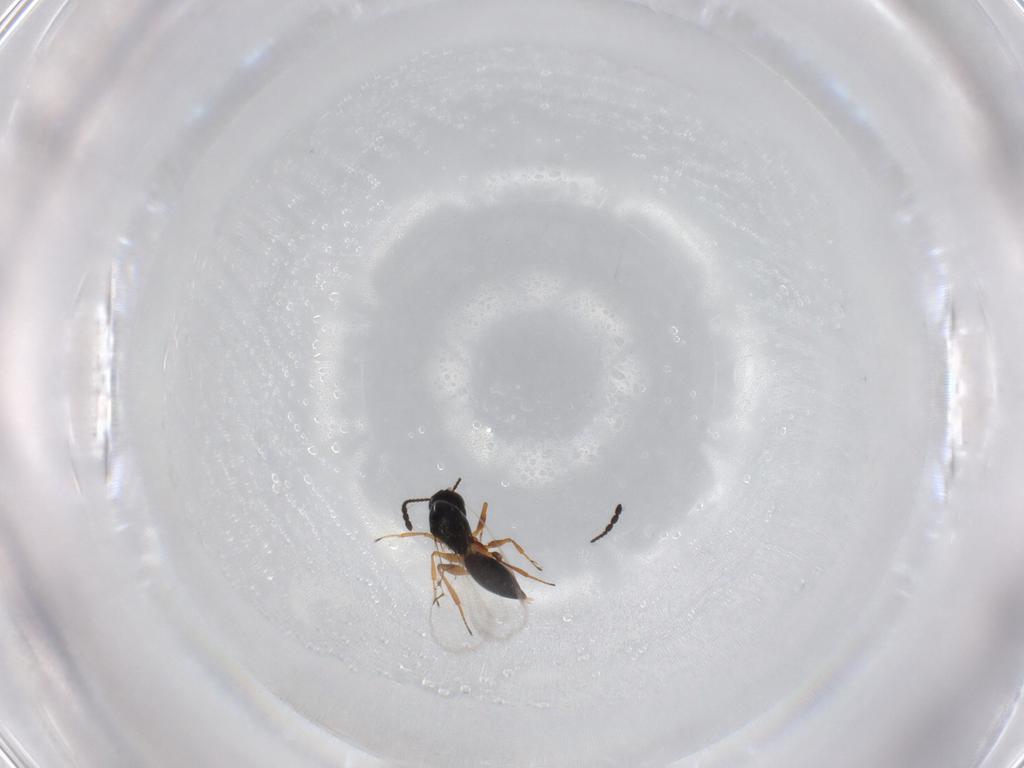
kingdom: Animalia
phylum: Arthropoda
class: Insecta
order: Hymenoptera
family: Figitidae
